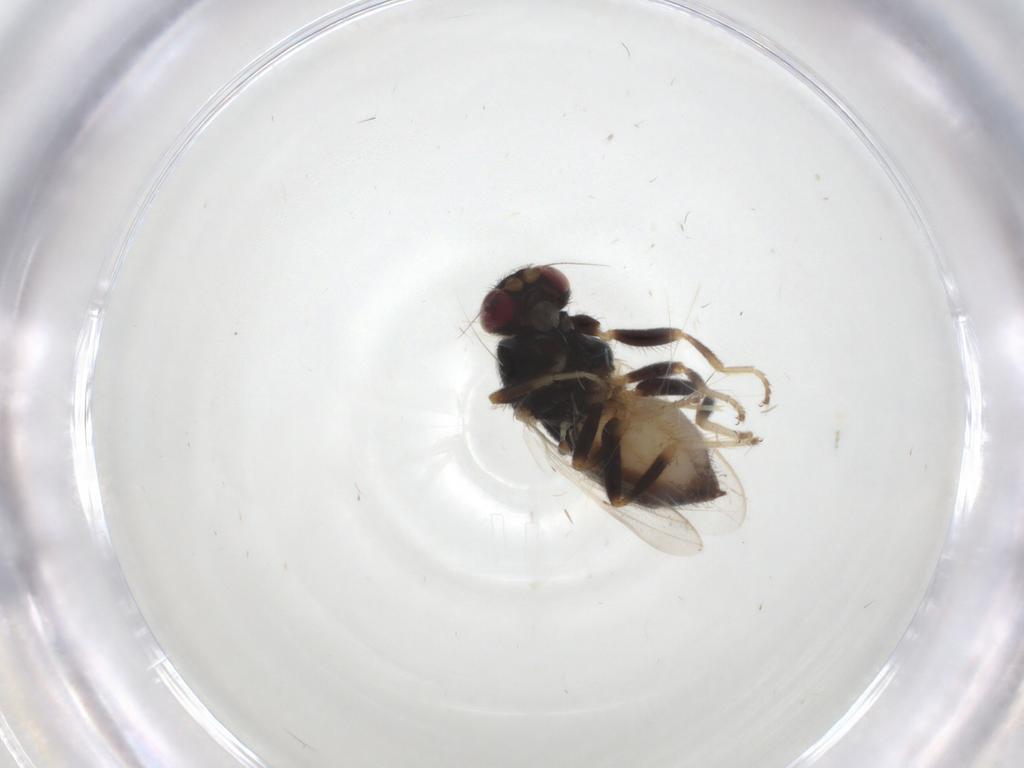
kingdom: Animalia
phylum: Arthropoda
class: Insecta
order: Diptera
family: Chloropidae
